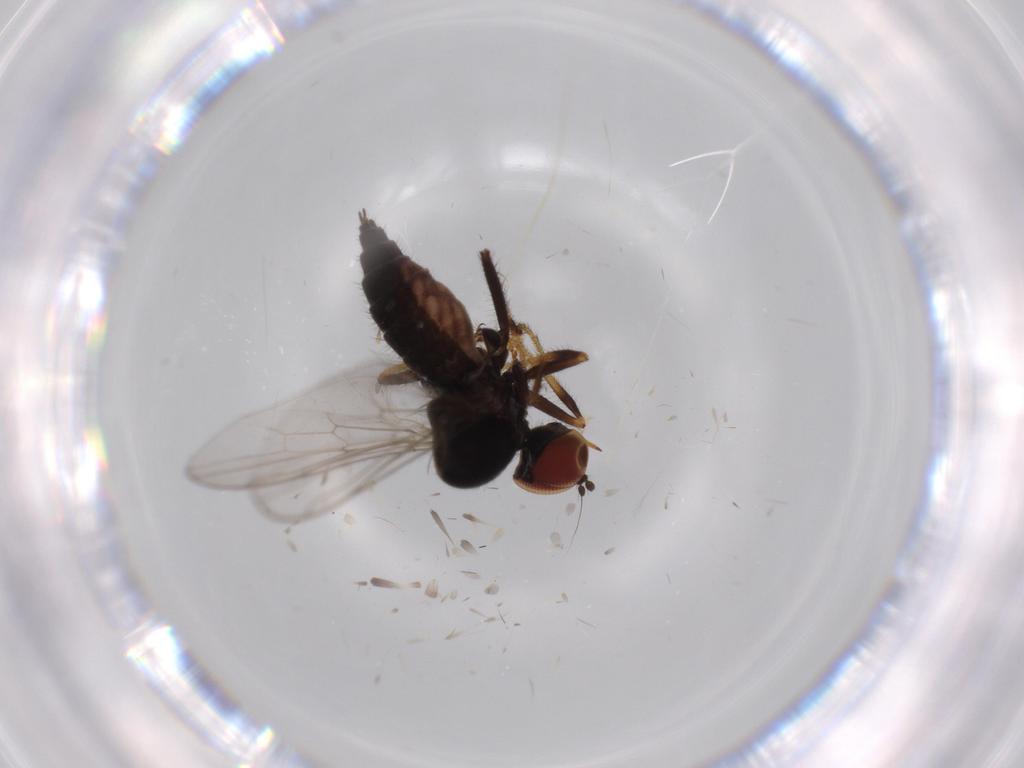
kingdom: Animalia
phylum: Arthropoda
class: Insecta
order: Diptera
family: Hybotidae
